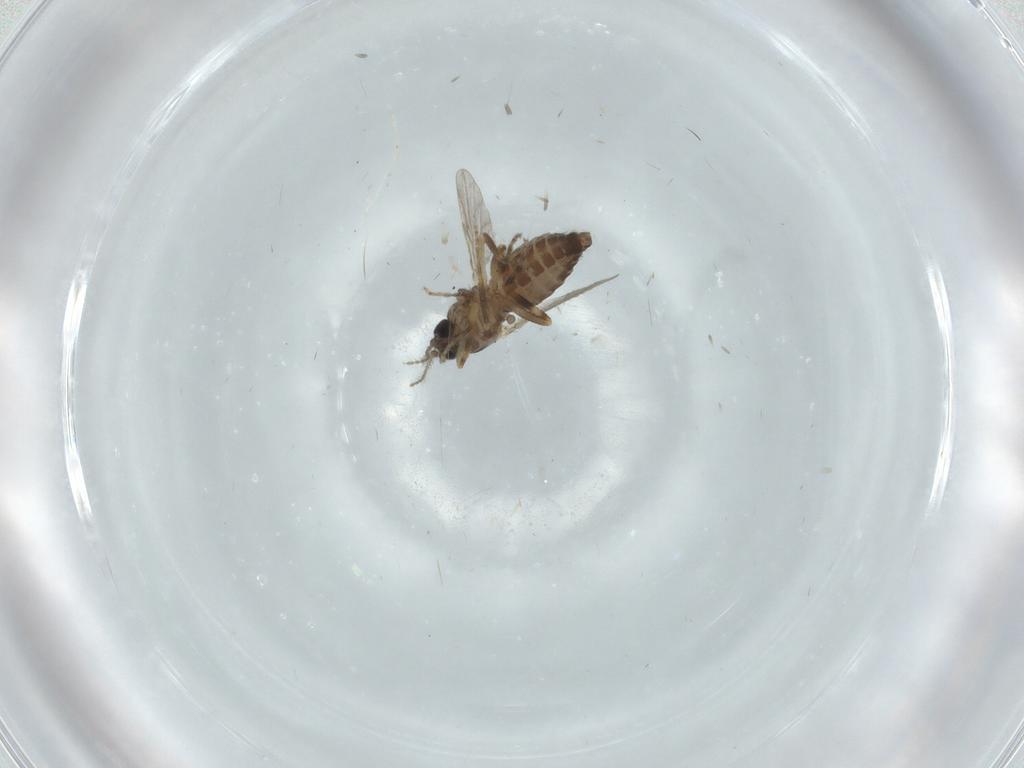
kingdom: Animalia
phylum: Arthropoda
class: Insecta
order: Diptera
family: Ceratopogonidae
